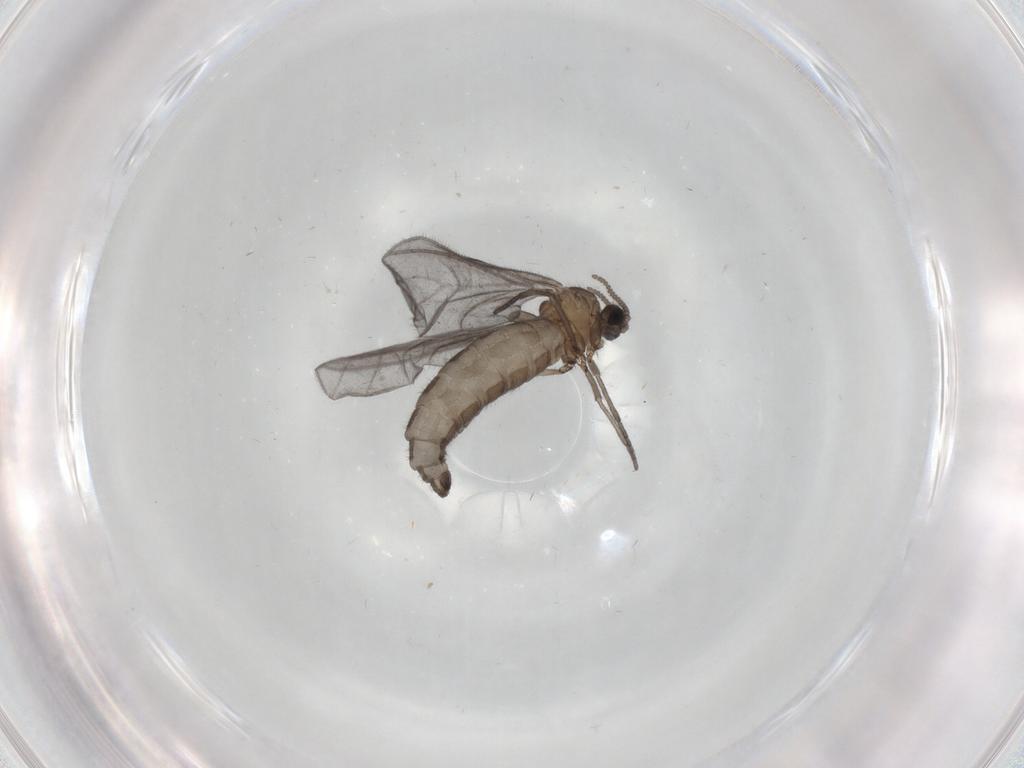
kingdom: Animalia
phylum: Arthropoda
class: Insecta
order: Diptera
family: Sciaridae
